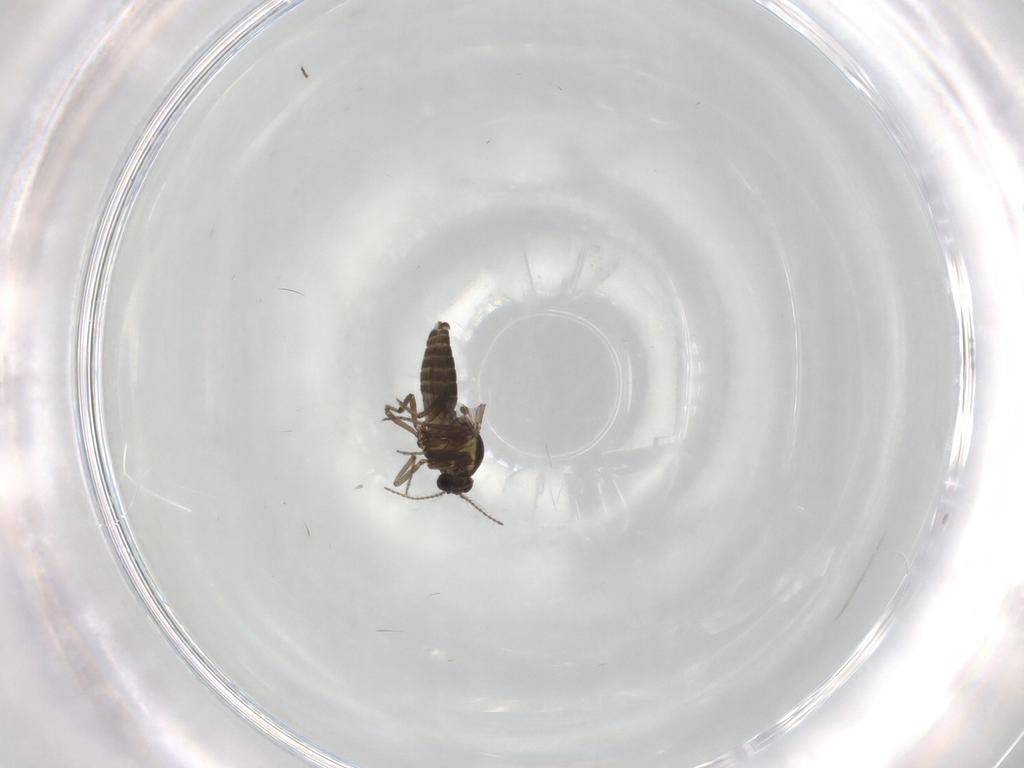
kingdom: Animalia
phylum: Arthropoda
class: Insecta
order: Diptera
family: Ceratopogonidae
